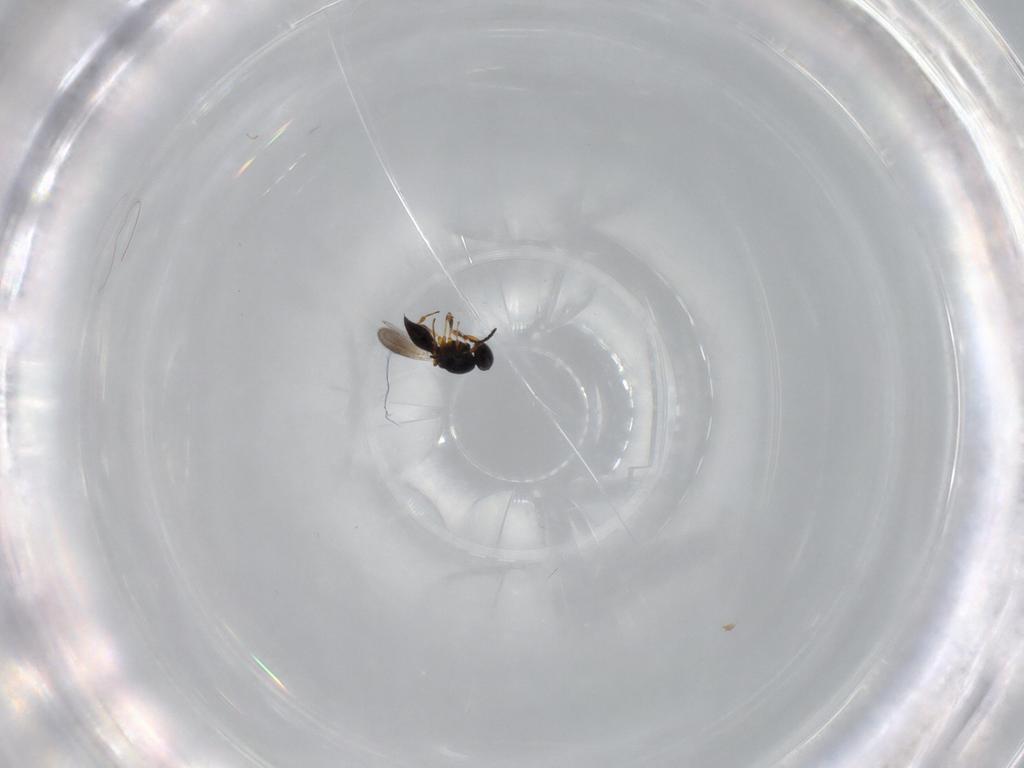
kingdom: Animalia
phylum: Arthropoda
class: Insecta
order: Hymenoptera
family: Platygastridae
